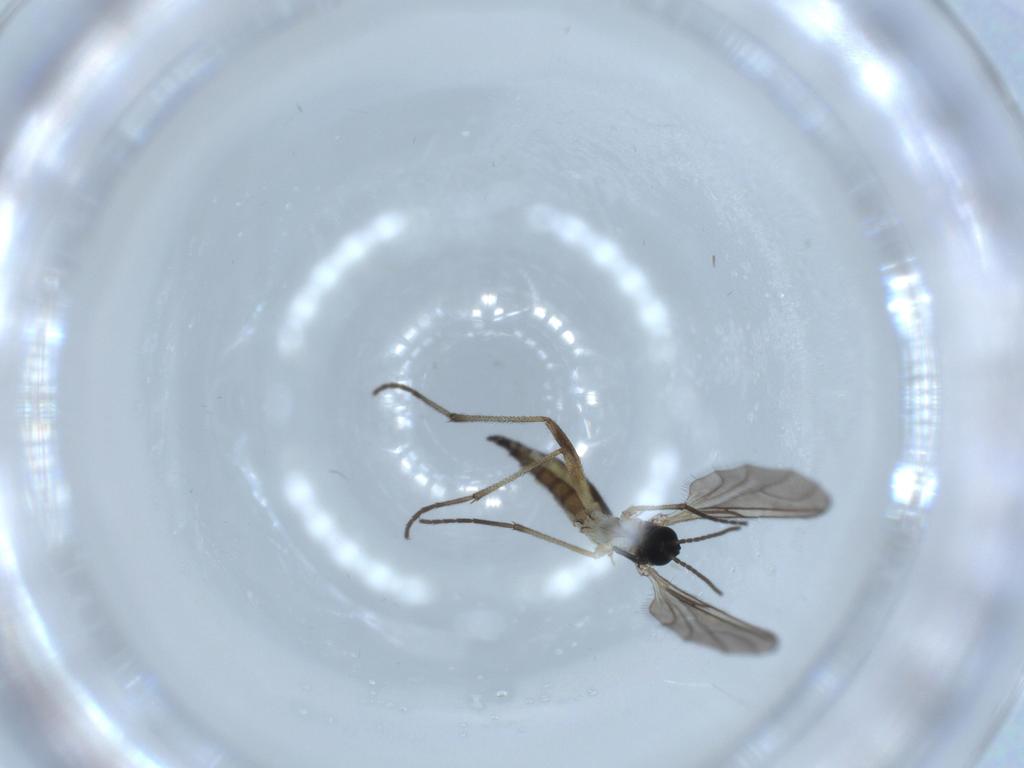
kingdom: Animalia
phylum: Arthropoda
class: Insecta
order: Diptera
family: Sciaridae
